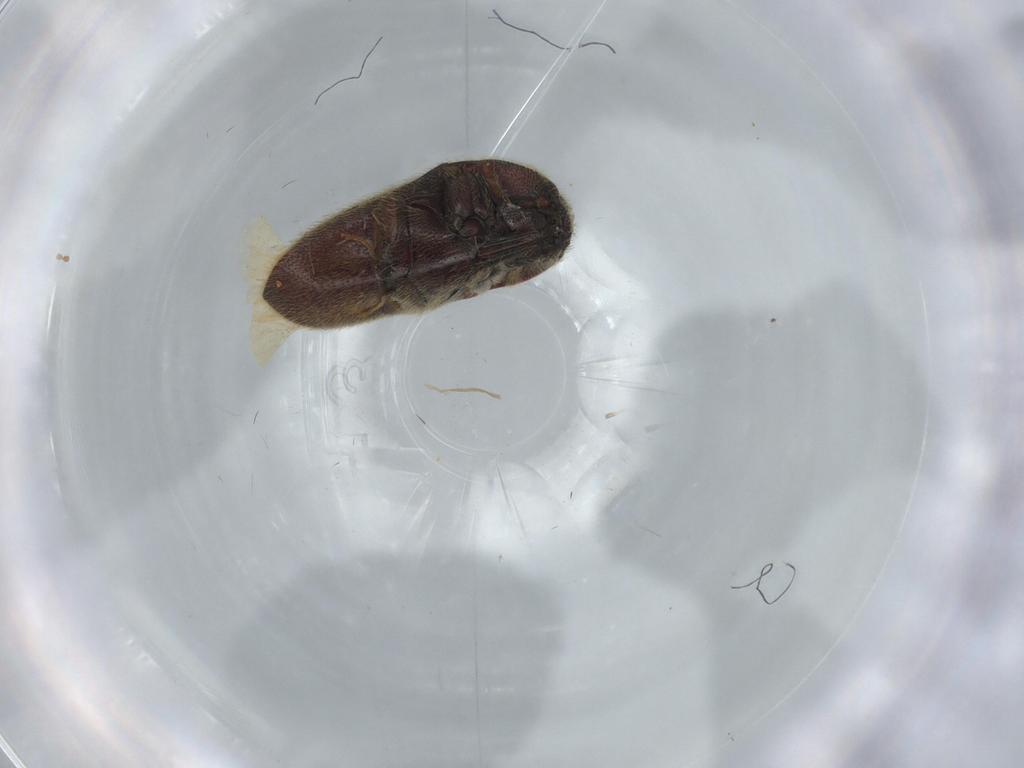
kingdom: Animalia
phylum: Arthropoda
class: Insecta
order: Coleoptera
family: Throscidae
